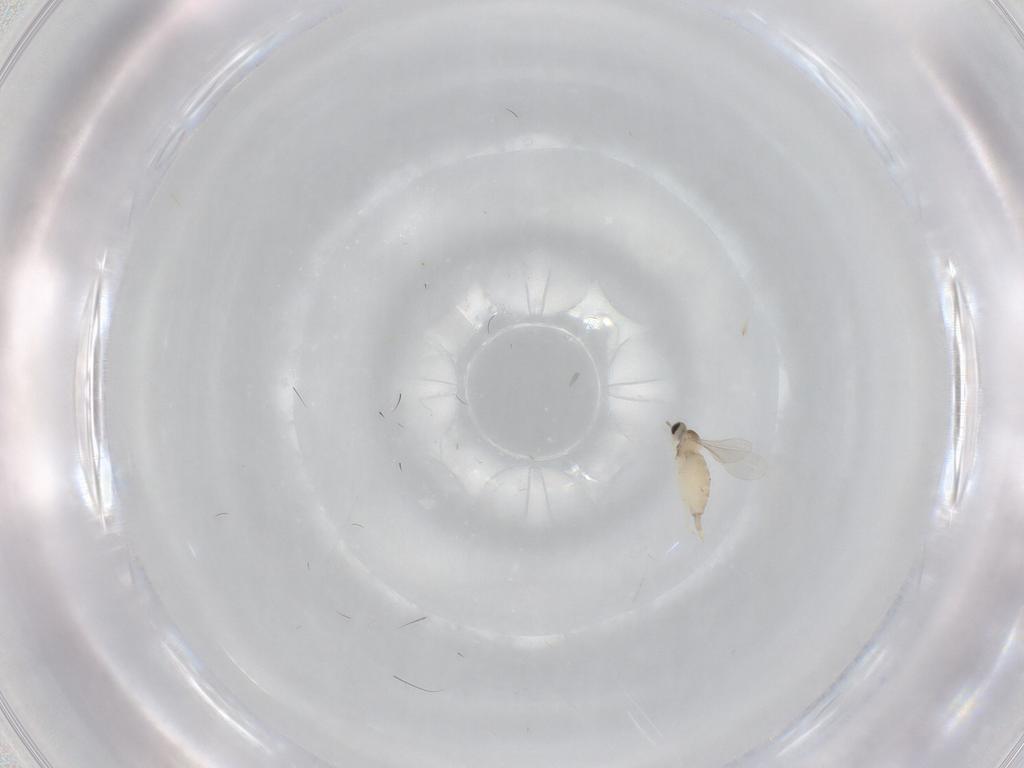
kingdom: Animalia
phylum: Arthropoda
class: Insecta
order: Diptera
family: Cecidomyiidae
